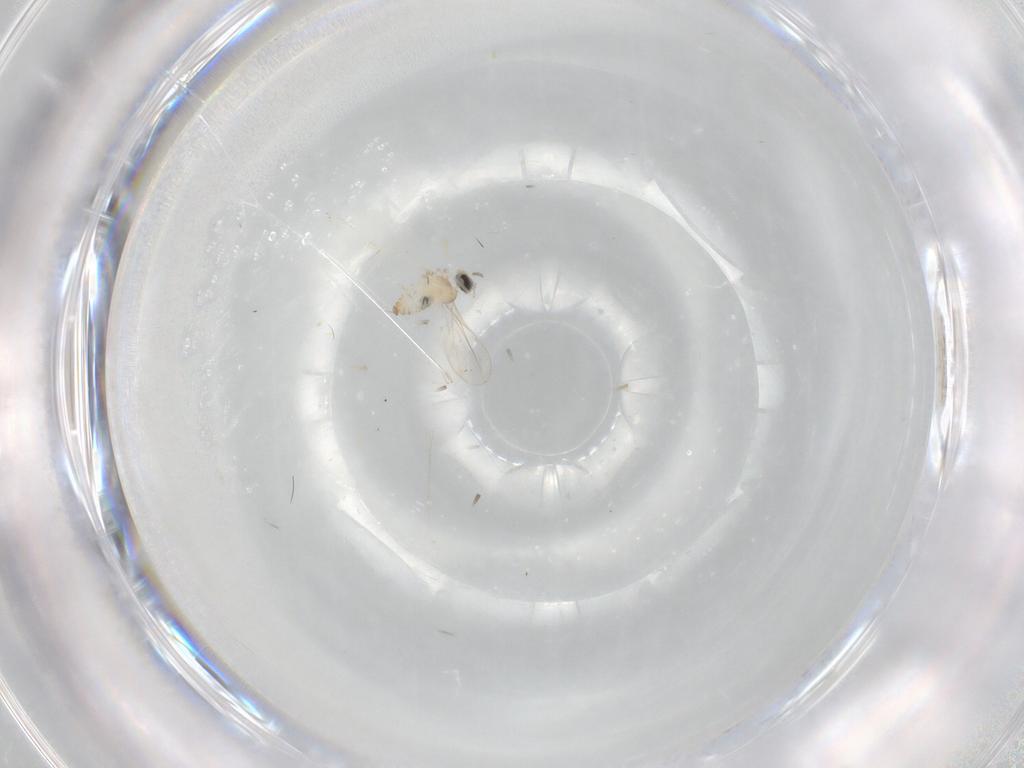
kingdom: Animalia
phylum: Arthropoda
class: Insecta
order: Diptera
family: Cecidomyiidae
